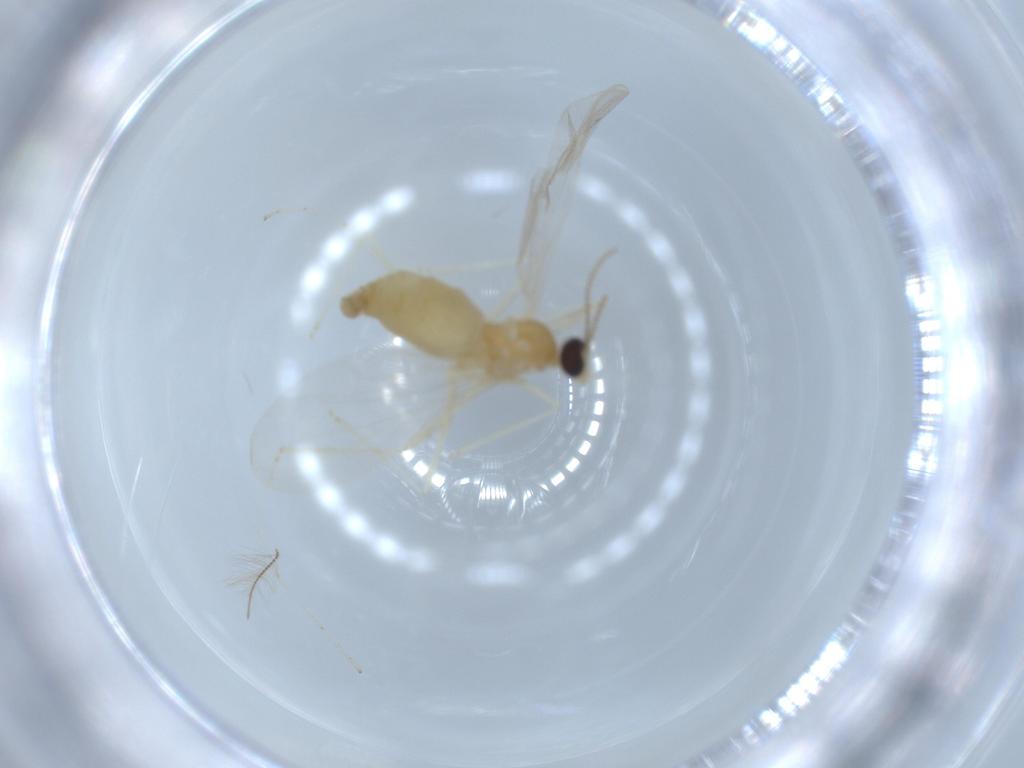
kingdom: Animalia
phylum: Arthropoda
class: Insecta
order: Diptera
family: Cecidomyiidae
